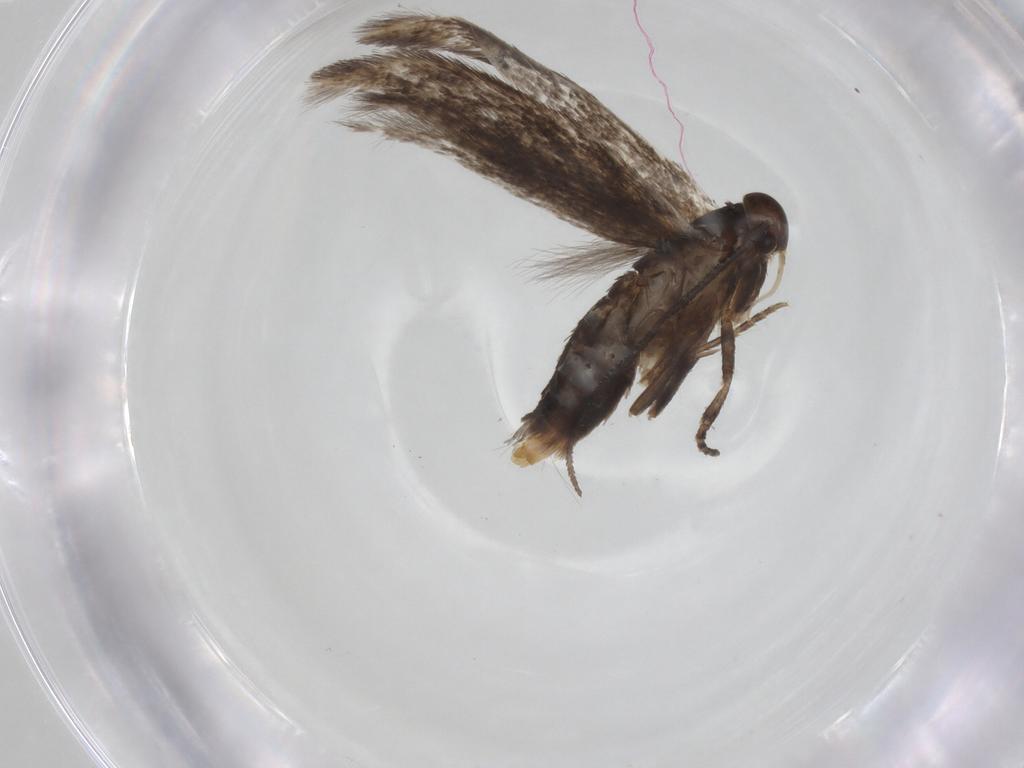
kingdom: Animalia
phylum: Arthropoda
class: Insecta
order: Lepidoptera
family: Elachistidae
